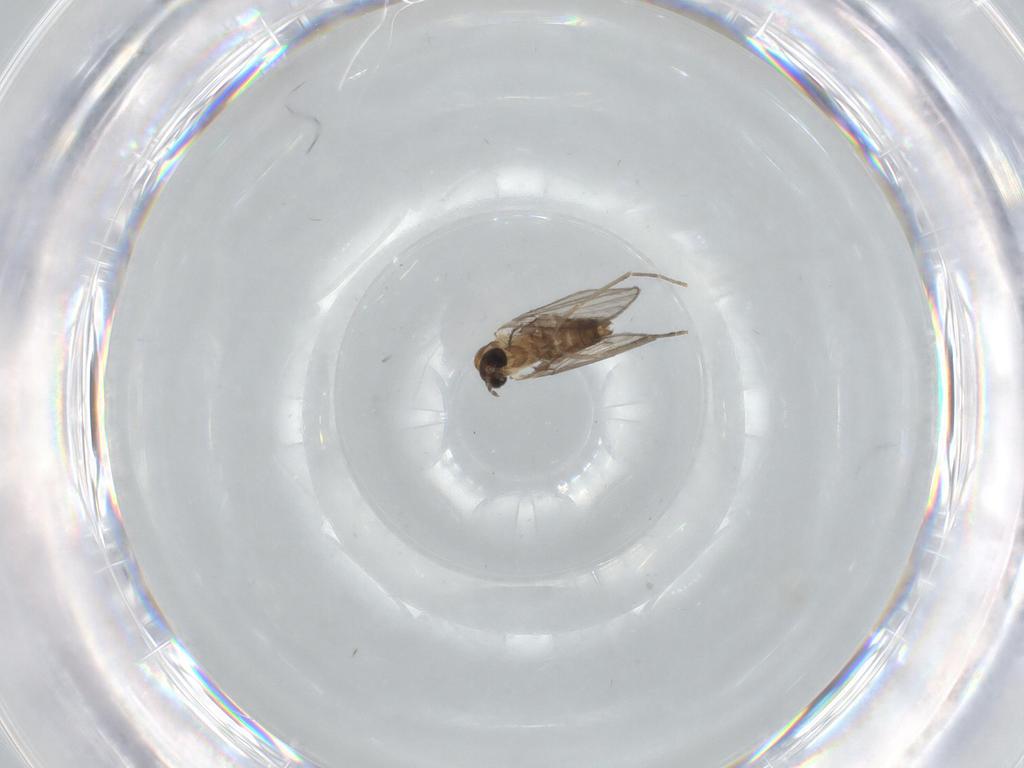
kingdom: Animalia
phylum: Arthropoda
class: Insecta
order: Diptera
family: Psychodidae
